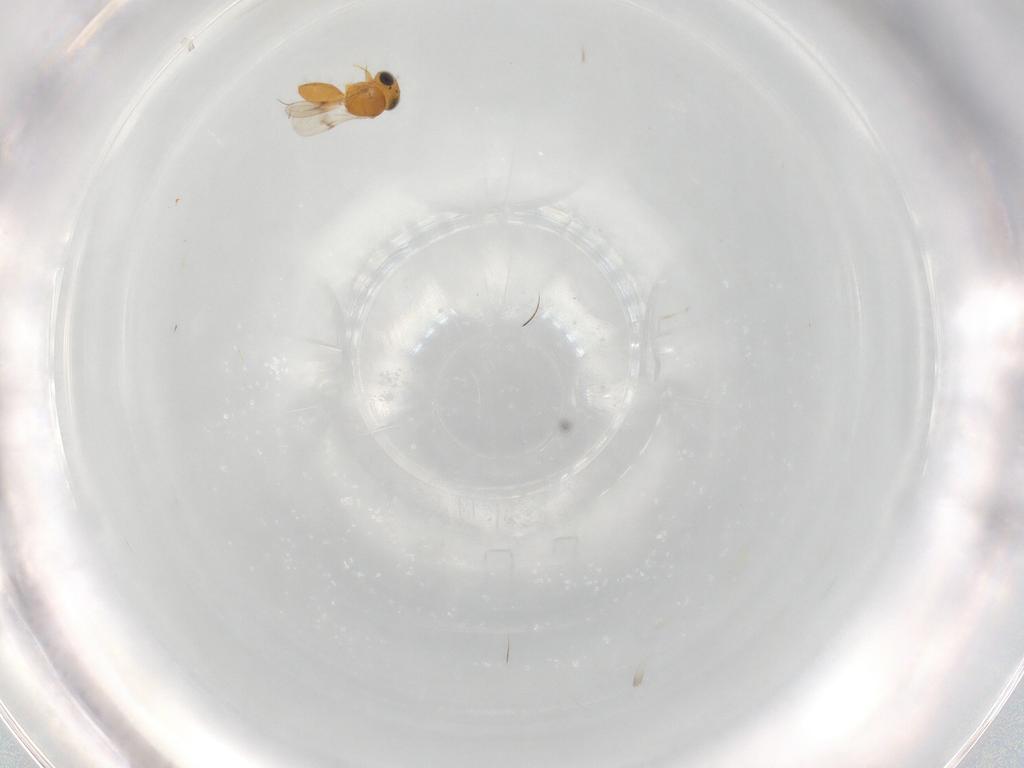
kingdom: Animalia
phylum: Arthropoda
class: Insecta
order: Hymenoptera
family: Scelionidae
